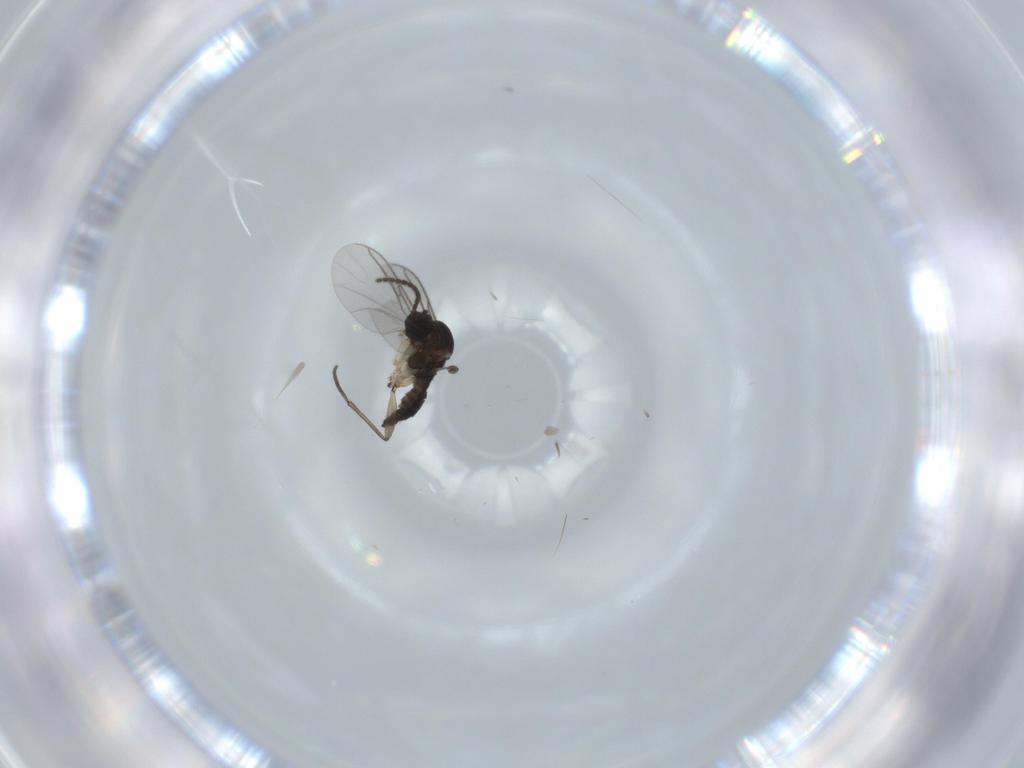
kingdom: Animalia
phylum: Arthropoda
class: Insecta
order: Diptera
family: Sciaridae
